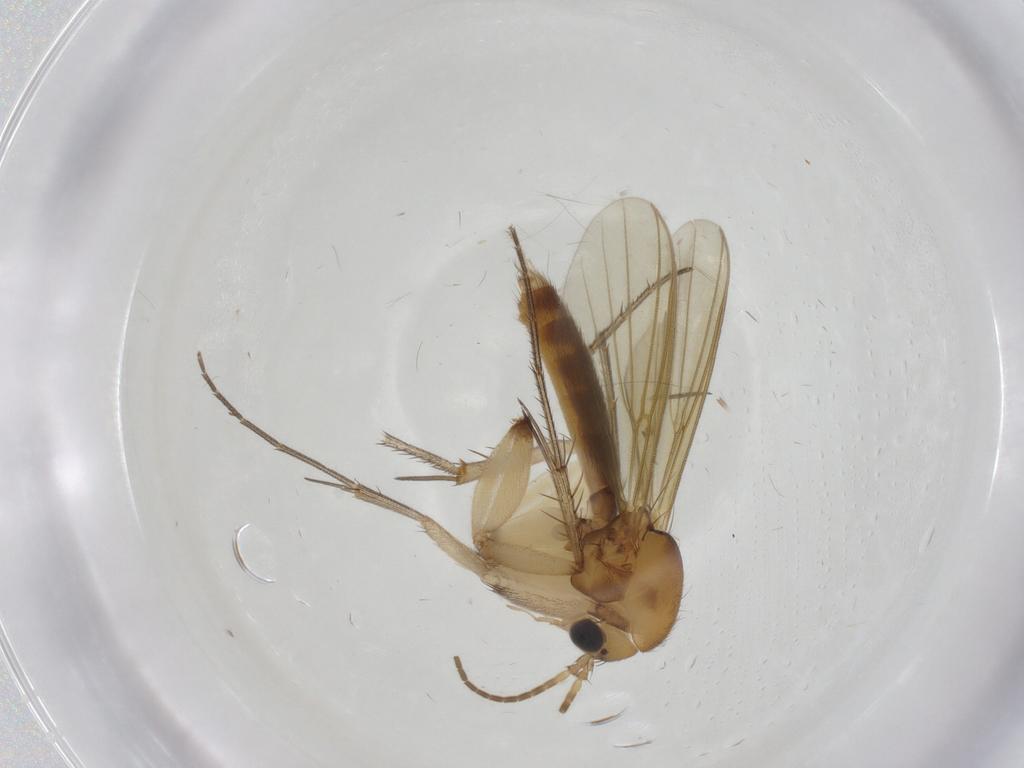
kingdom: Animalia
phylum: Arthropoda
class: Insecta
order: Diptera
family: Mycetophilidae
